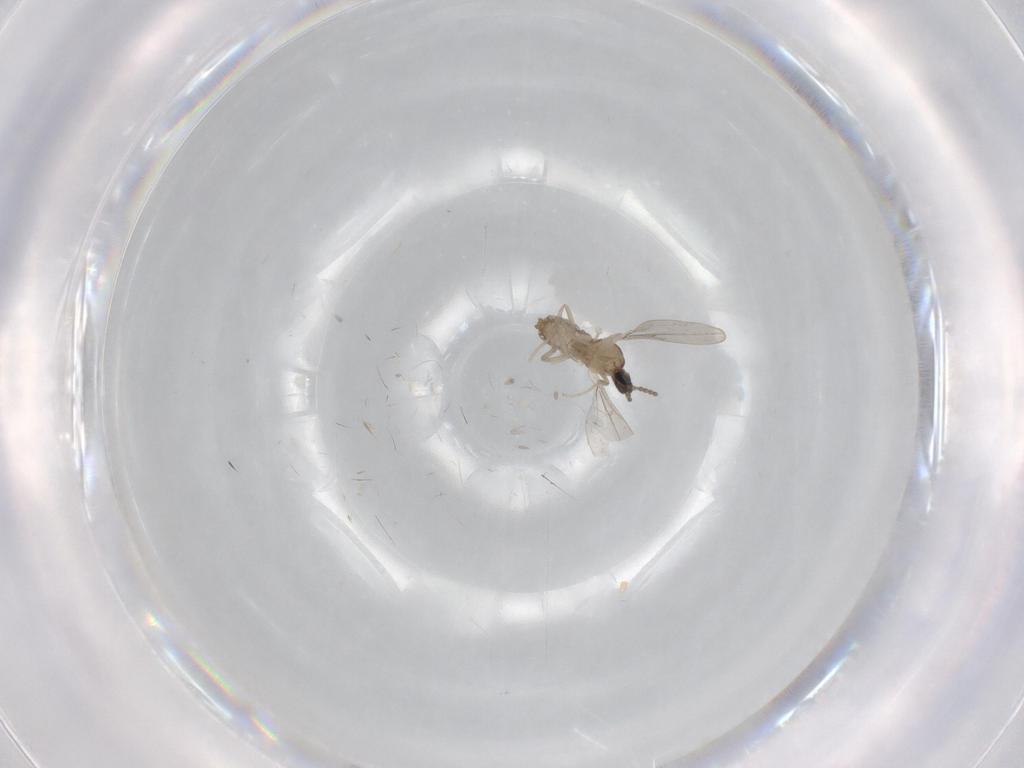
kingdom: Animalia
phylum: Arthropoda
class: Insecta
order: Diptera
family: Cecidomyiidae
